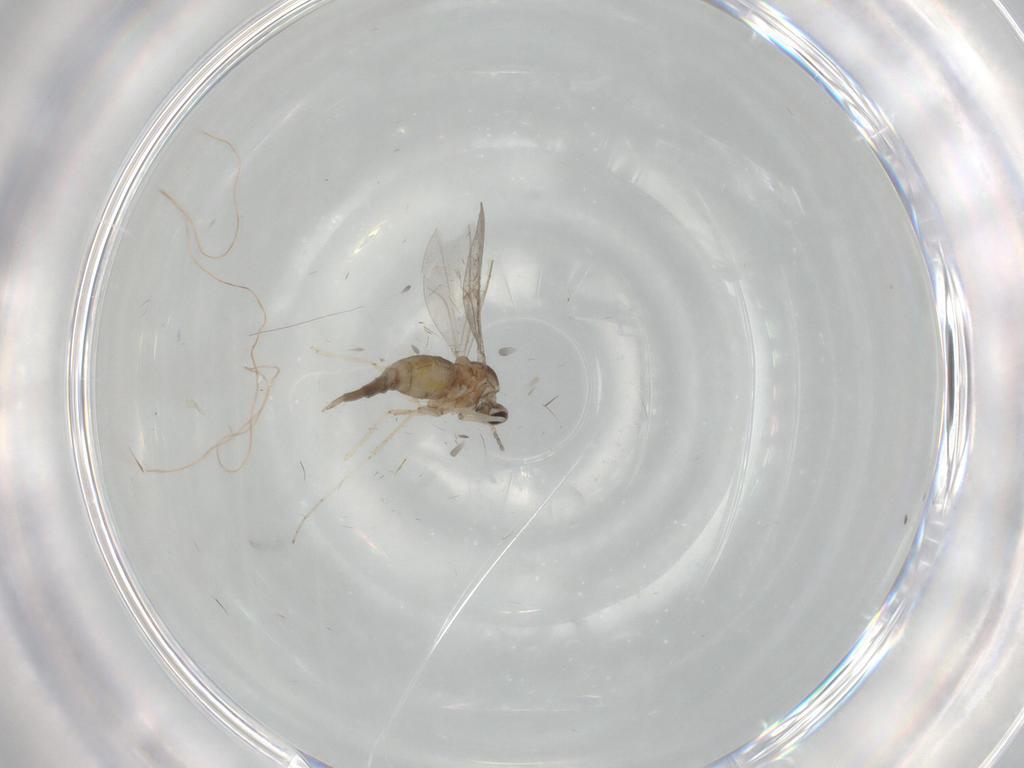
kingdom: Animalia
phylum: Arthropoda
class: Insecta
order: Diptera
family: Cecidomyiidae
